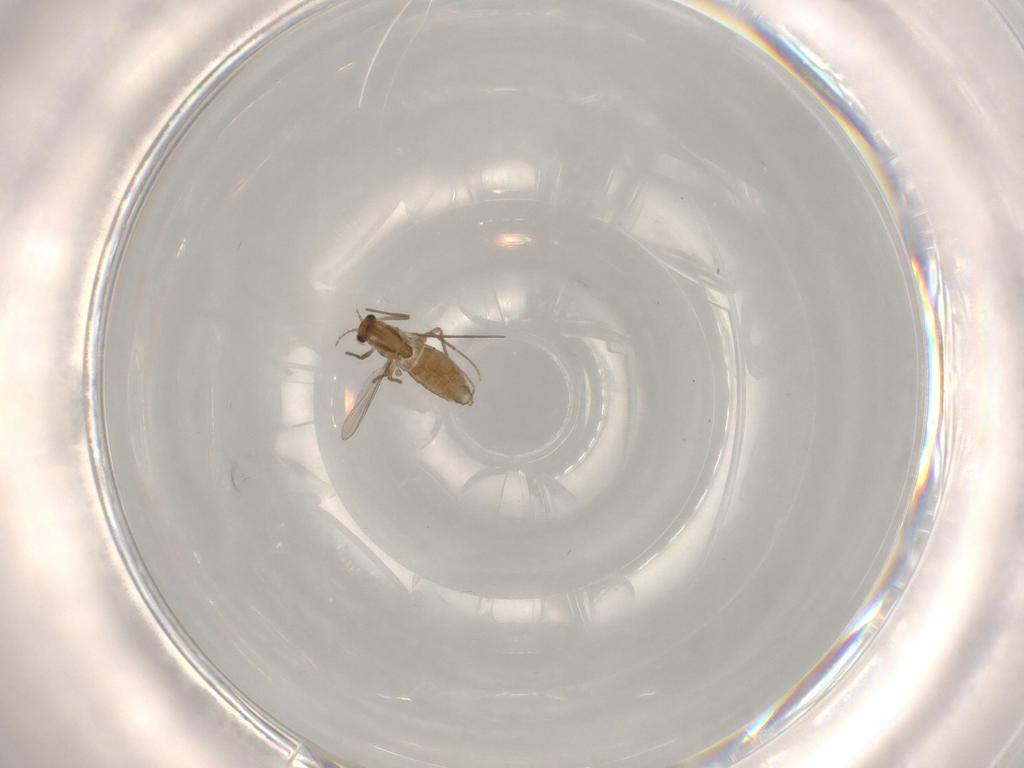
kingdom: Animalia
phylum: Arthropoda
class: Insecta
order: Diptera
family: Chironomidae
